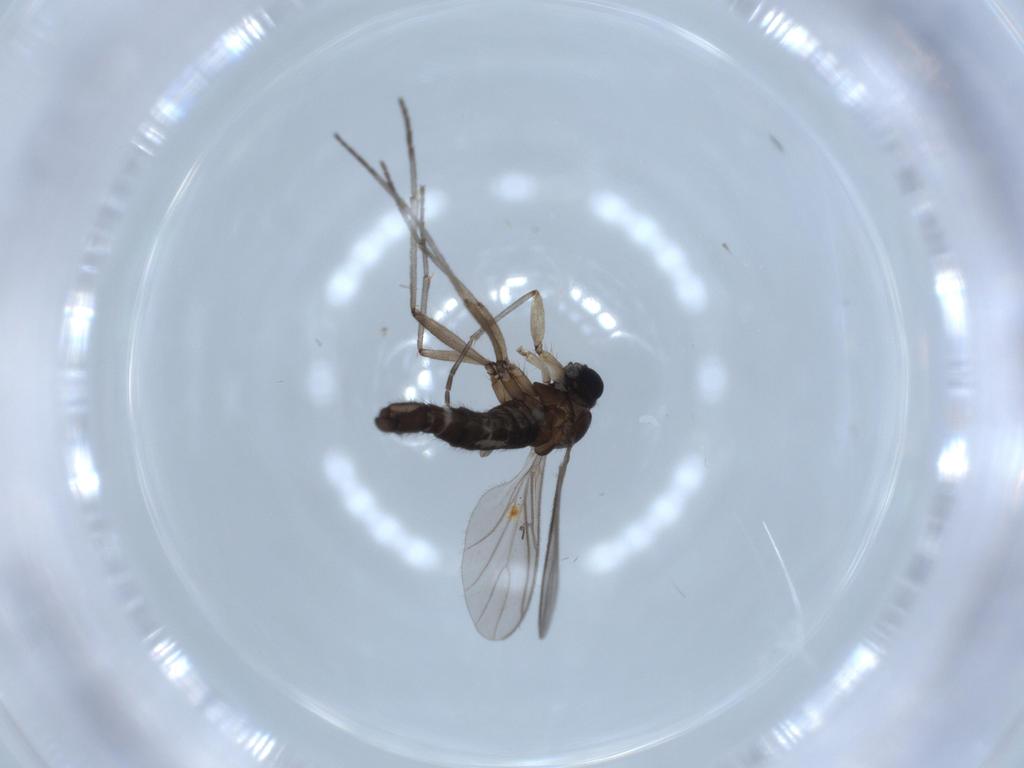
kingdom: Animalia
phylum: Arthropoda
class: Insecta
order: Diptera
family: Sciaridae
